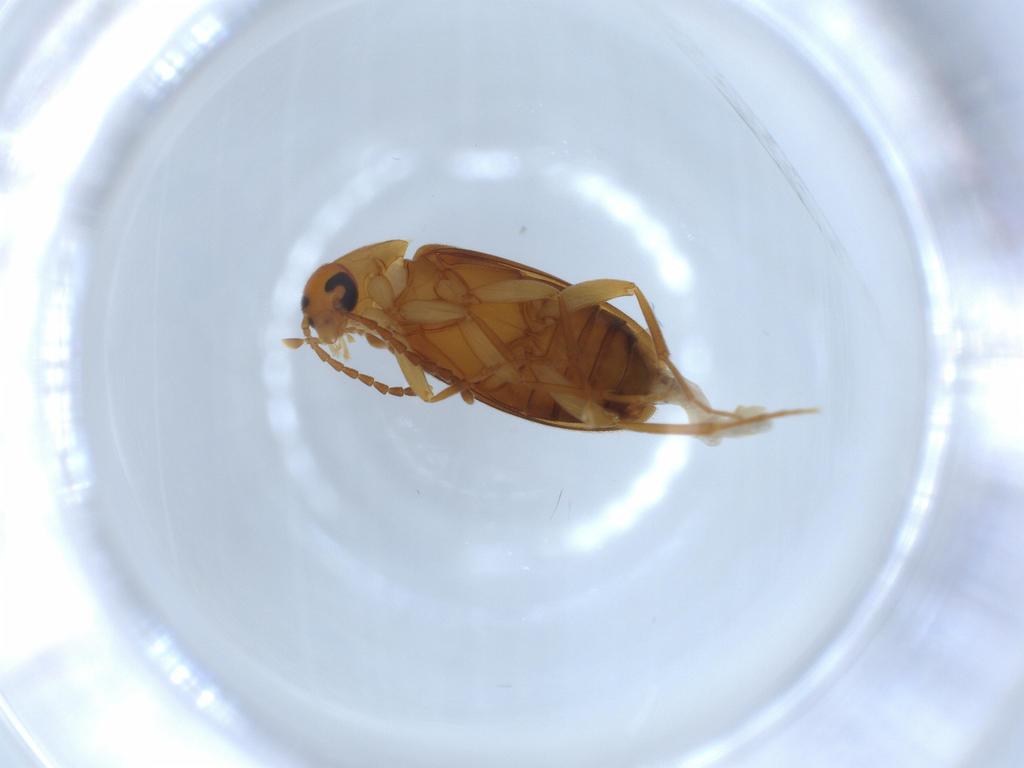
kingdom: Animalia
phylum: Arthropoda
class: Insecta
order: Coleoptera
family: Scraptiidae
